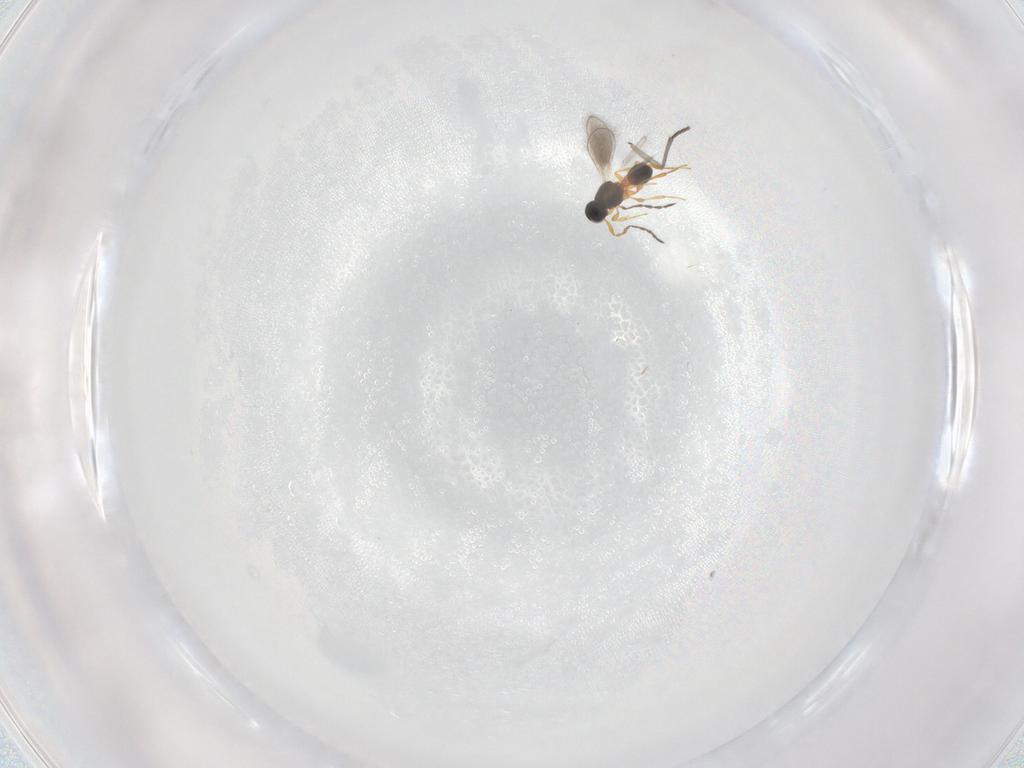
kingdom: Animalia
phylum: Arthropoda
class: Insecta
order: Hymenoptera
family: Platygastridae
